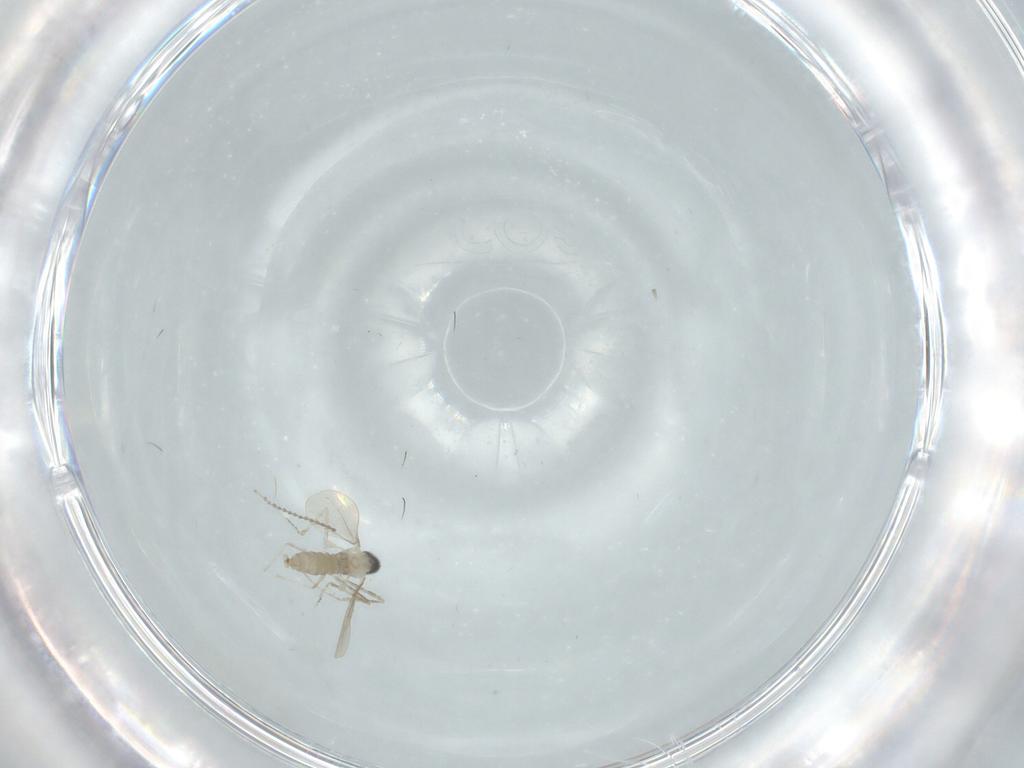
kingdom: Animalia
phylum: Arthropoda
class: Insecta
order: Diptera
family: Cecidomyiidae
